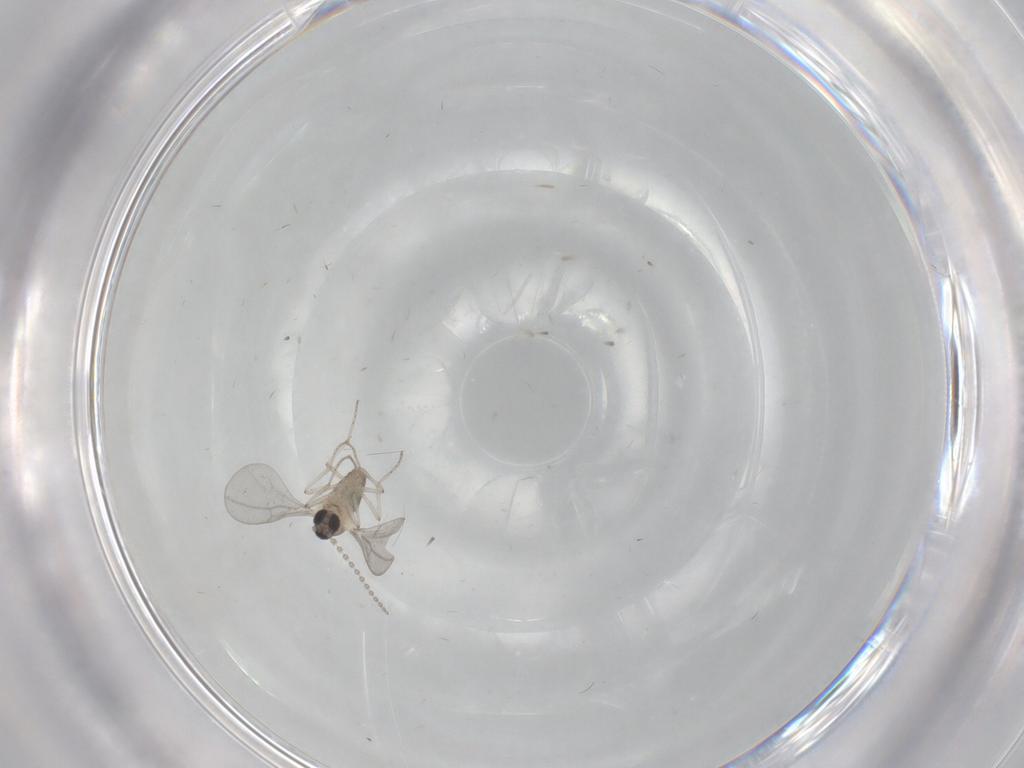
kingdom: Animalia
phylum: Arthropoda
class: Insecta
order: Diptera
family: Cecidomyiidae
